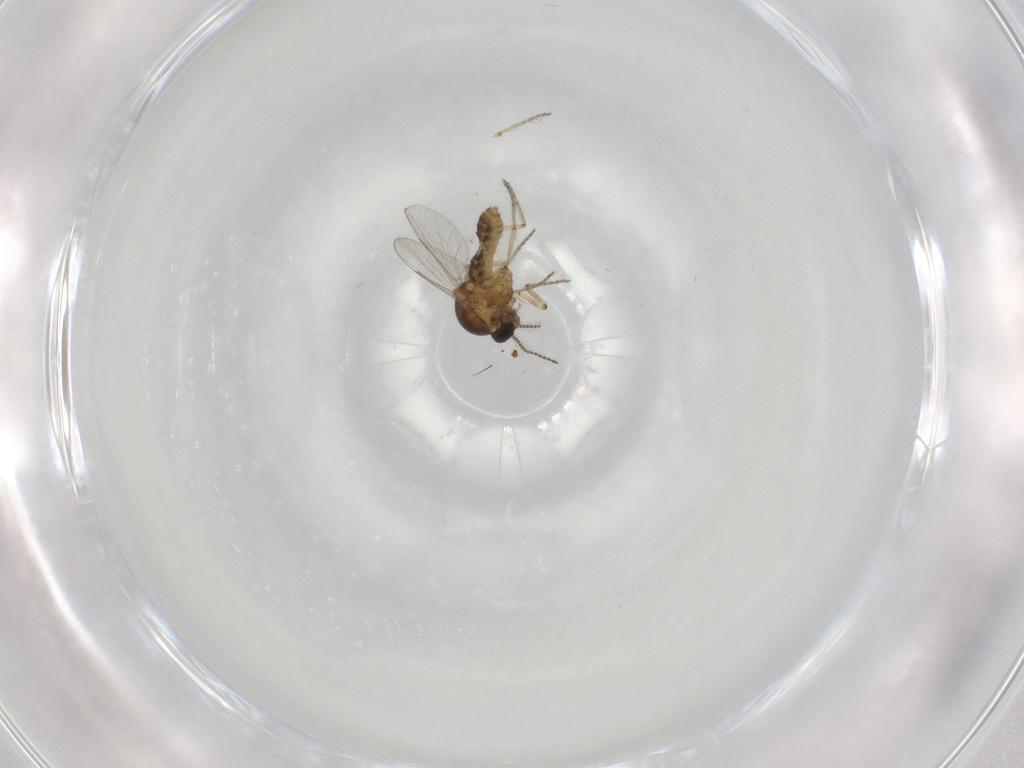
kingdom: Animalia
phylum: Arthropoda
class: Insecta
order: Diptera
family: Ceratopogonidae
